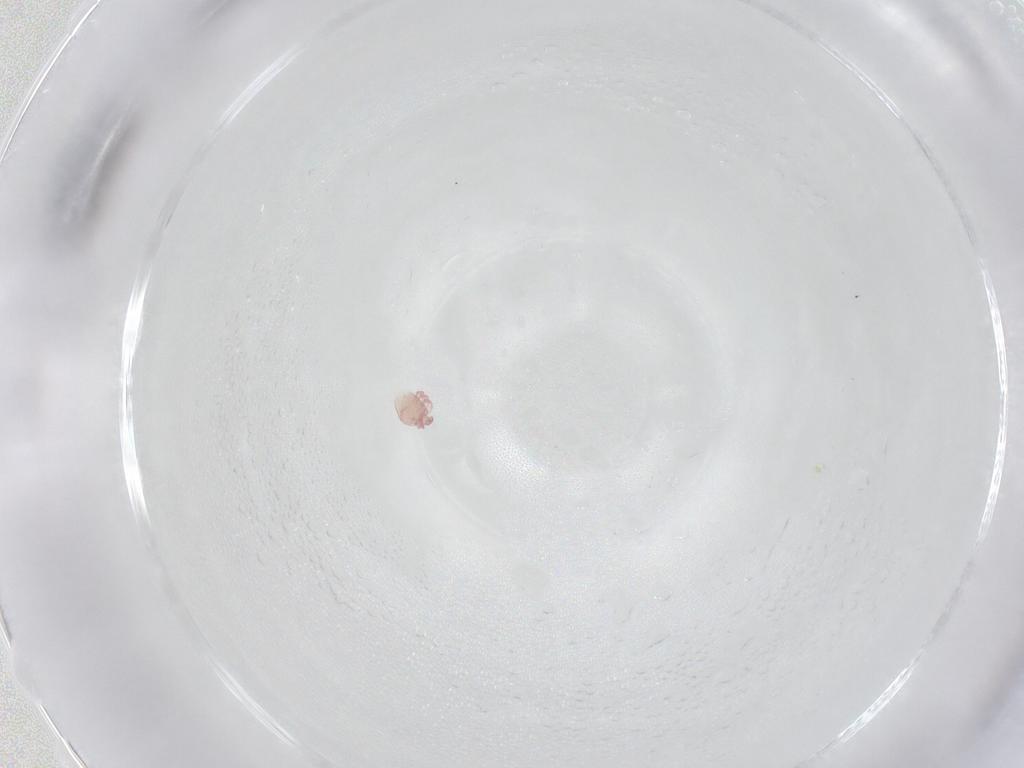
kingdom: Animalia
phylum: Arthropoda
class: Arachnida
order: Trombidiformes
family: Pionidae
